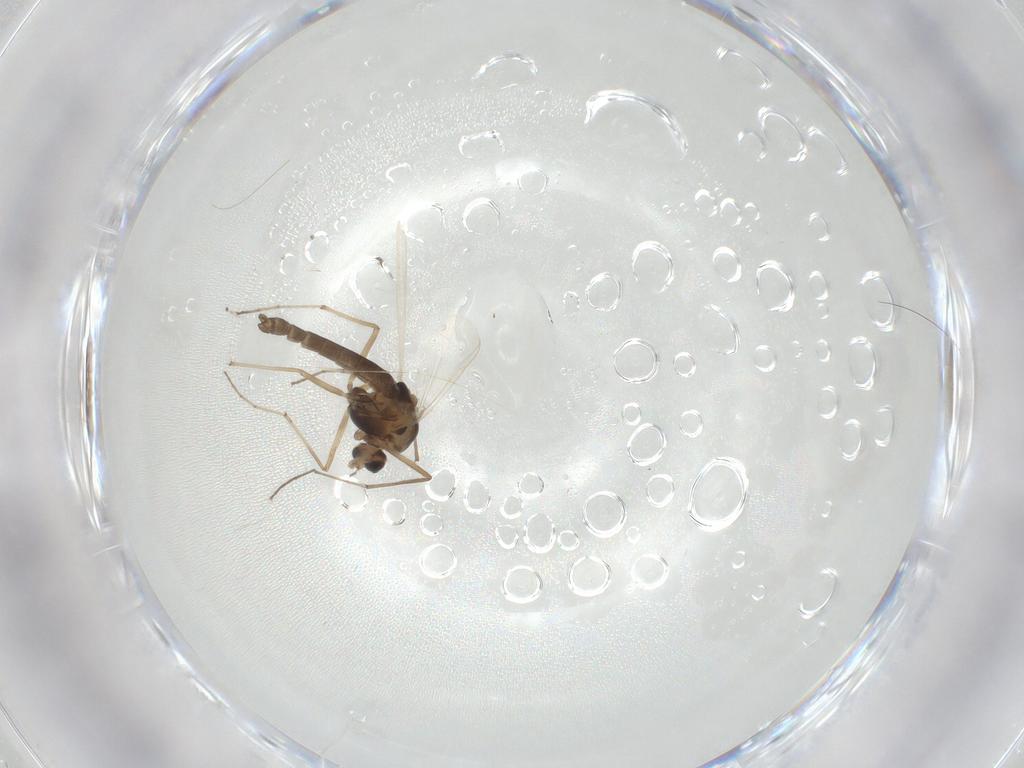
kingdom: Animalia
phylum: Arthropoda
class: Insecta
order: Diptera
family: Chironomidae
